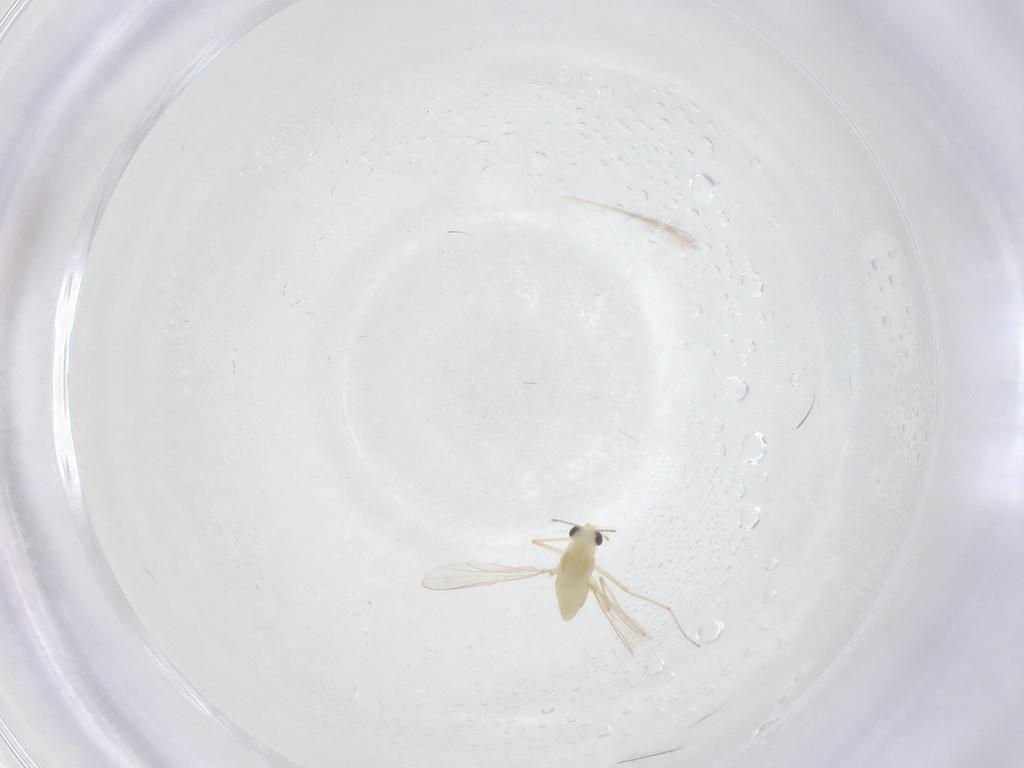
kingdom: Animalia
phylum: Arthropoda
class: Insecta
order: Diptera
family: Chironomidae
